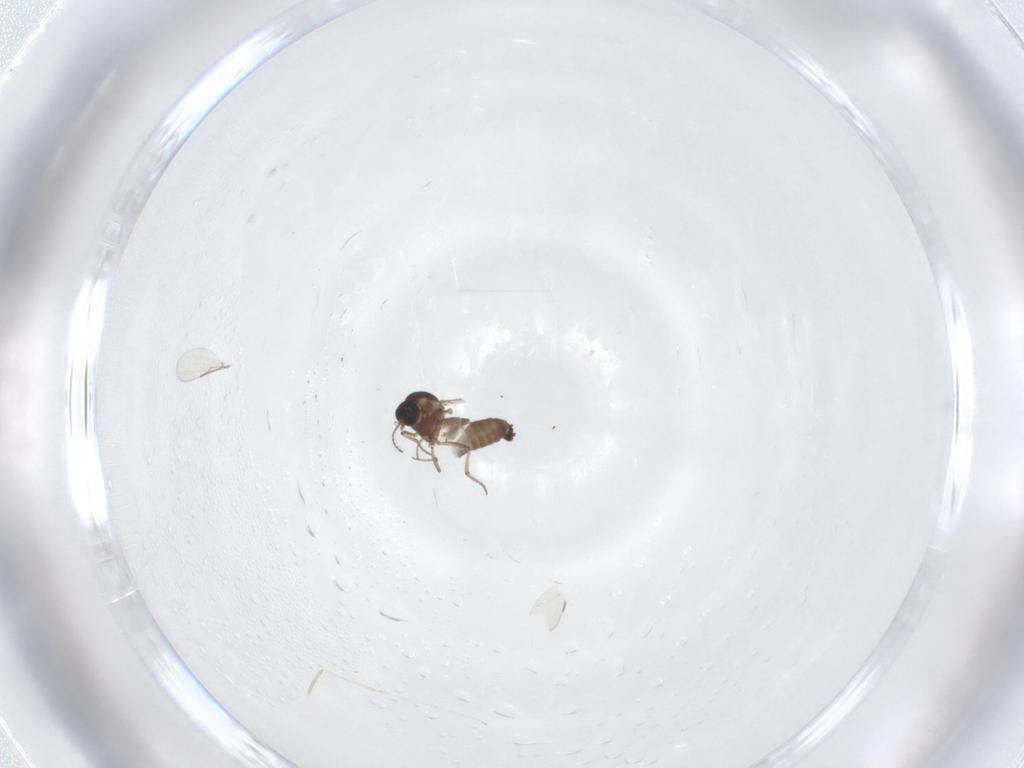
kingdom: Animalia
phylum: Arthropoda
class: Insecta
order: Diptera
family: Ceratopogonidae
